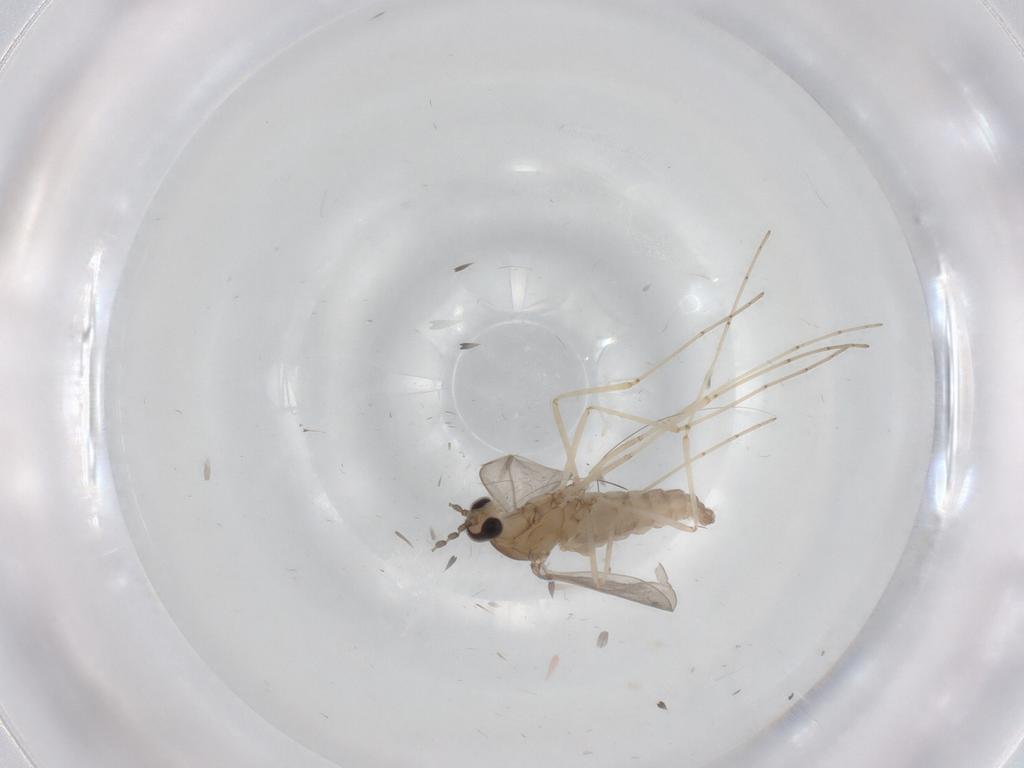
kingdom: Animalia
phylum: Arthropoda
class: Insecta
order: Diptera
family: Cecidomyiidae
